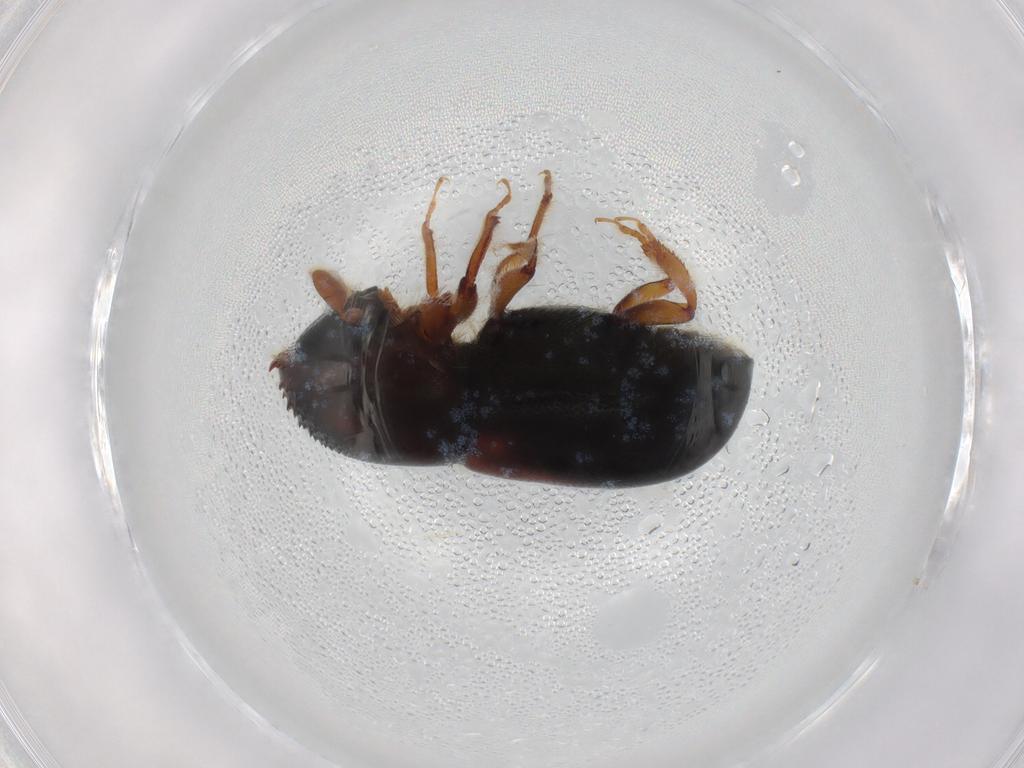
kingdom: Animalia
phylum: Arthropoda
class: Insecta
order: Coleoptera
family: Curculionidae
